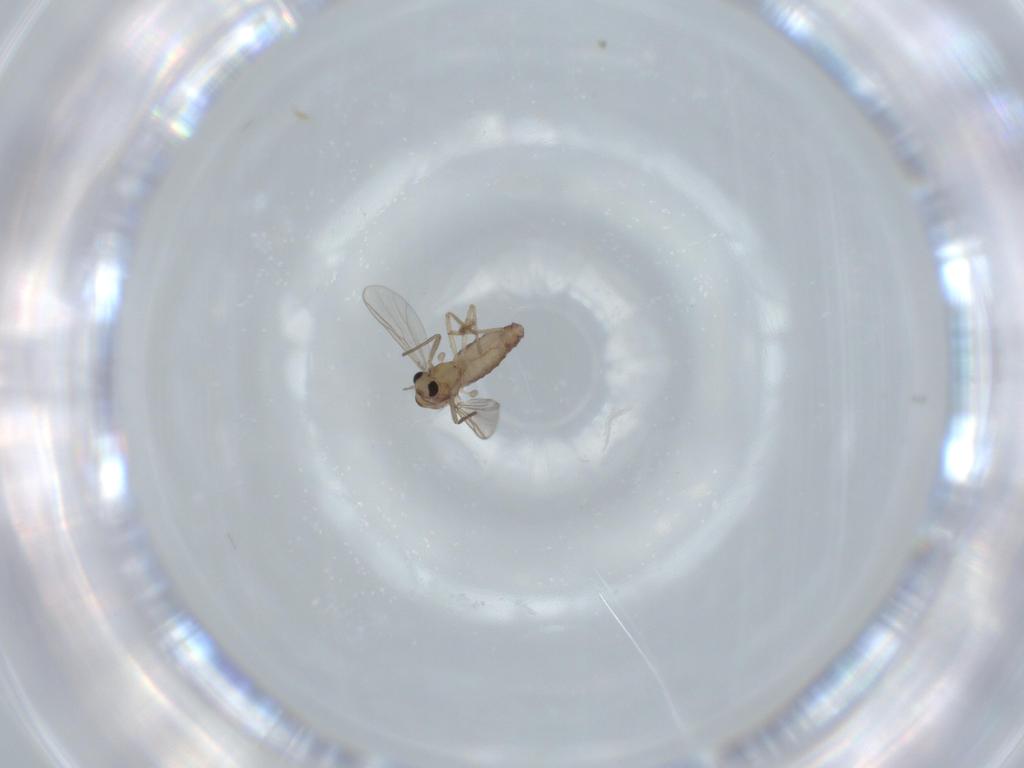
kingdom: Animalia
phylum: Arthropoda
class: Insecta
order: Diptera
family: Chironomidae
